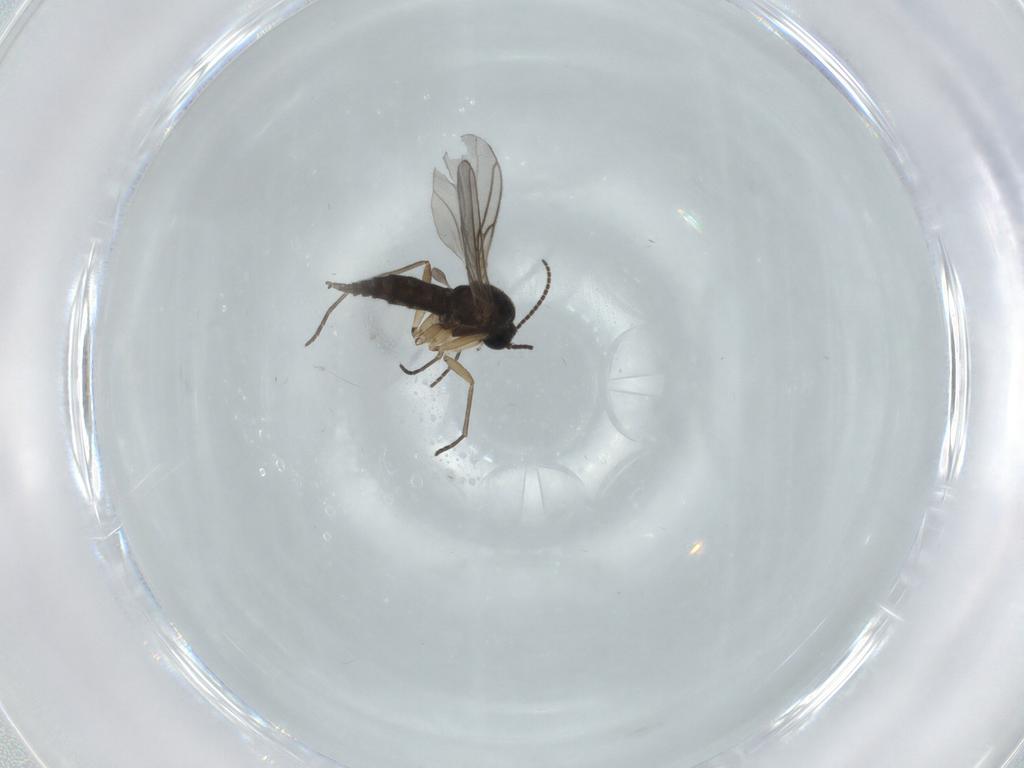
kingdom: Animalia
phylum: Arthropoda
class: Insecta
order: Diptera
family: Sciaridae
